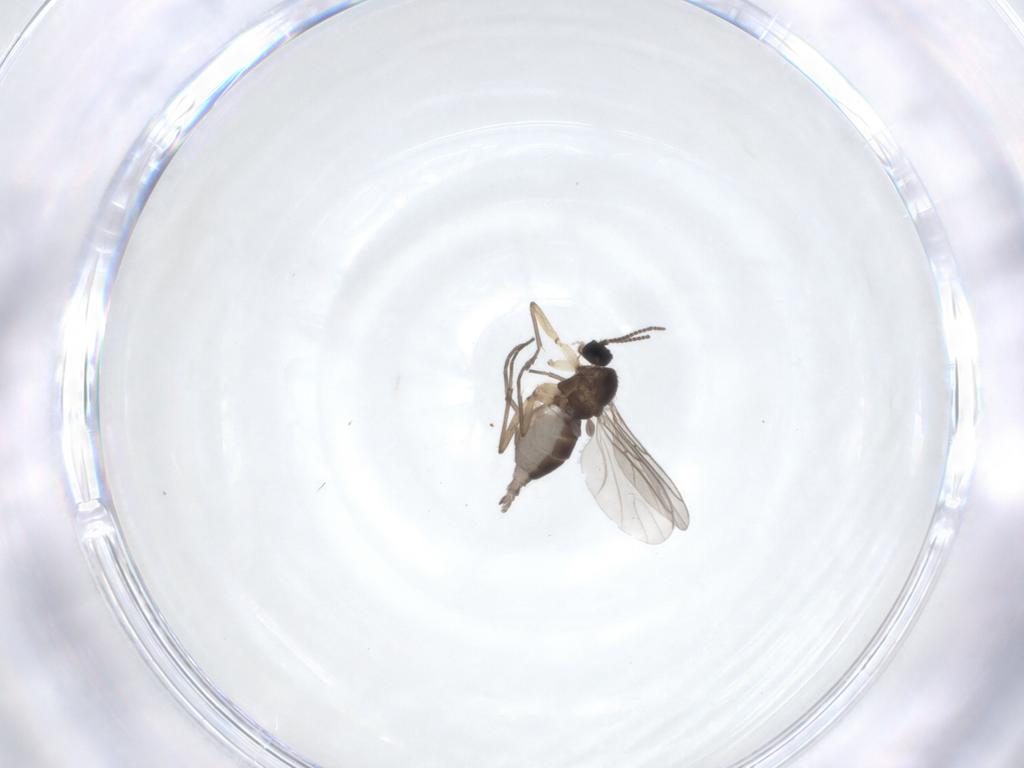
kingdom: Animalia
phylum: Arthropoda
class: Insecta
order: Diptera
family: Sciaridae
